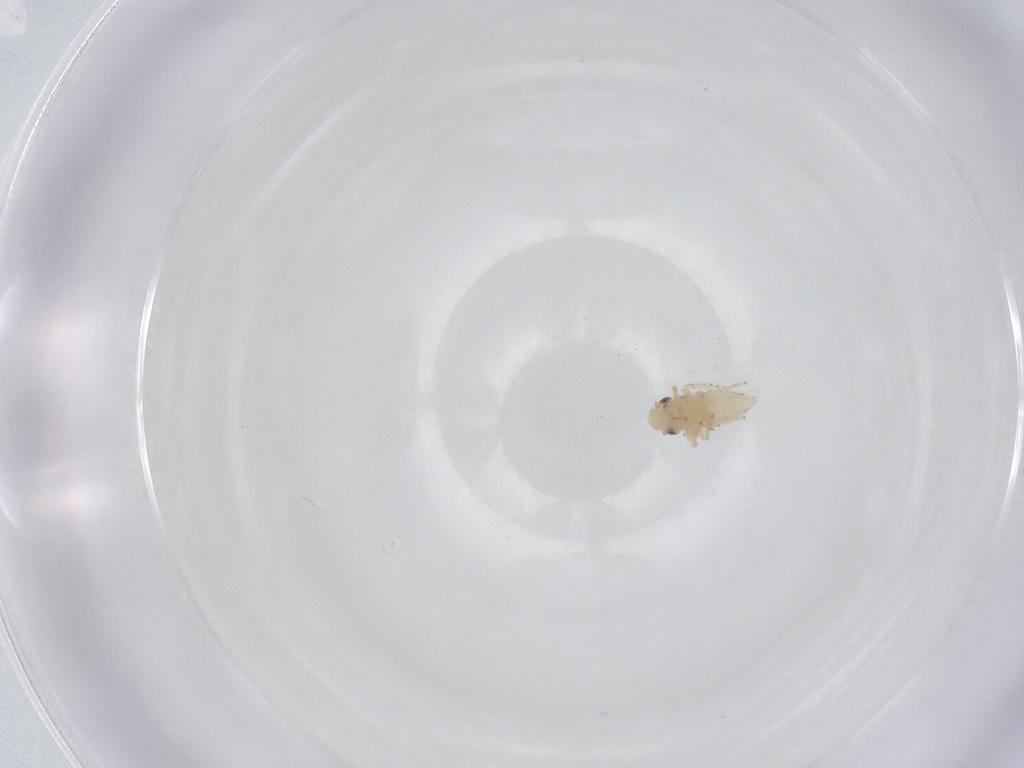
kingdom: Animalia
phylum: Arthropoda
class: Insecta
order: Hemiptera
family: Cicadellidae
